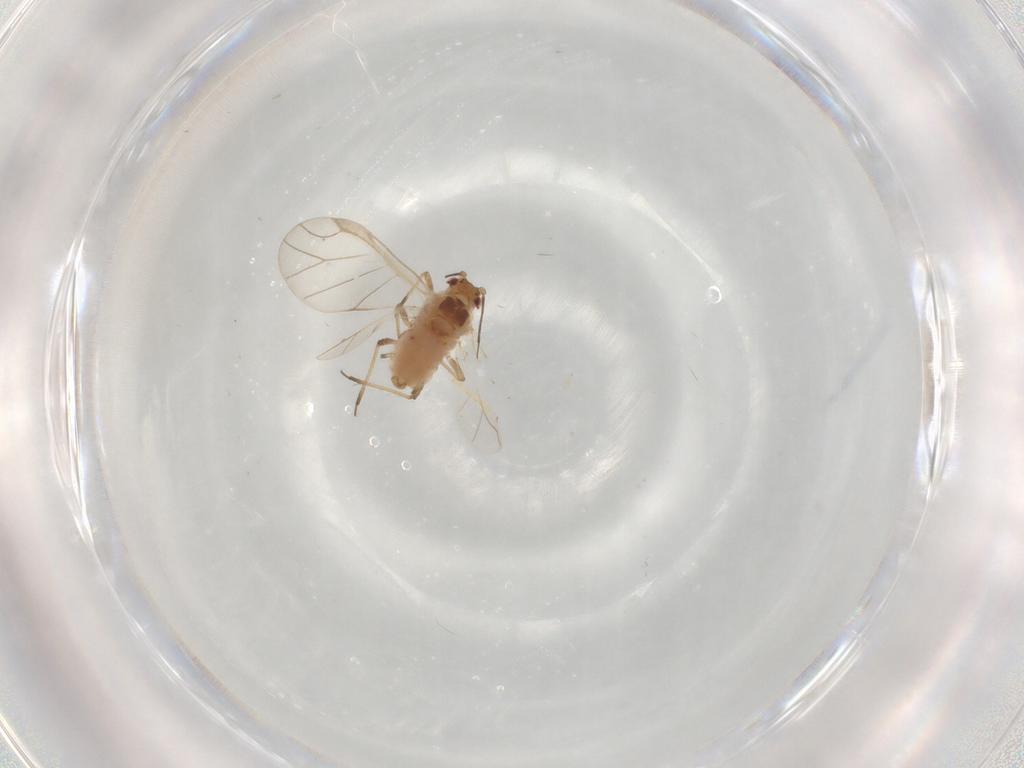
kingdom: Animalia
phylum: Arthropoda
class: Insecta
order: Hemiptera
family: Aphididae
